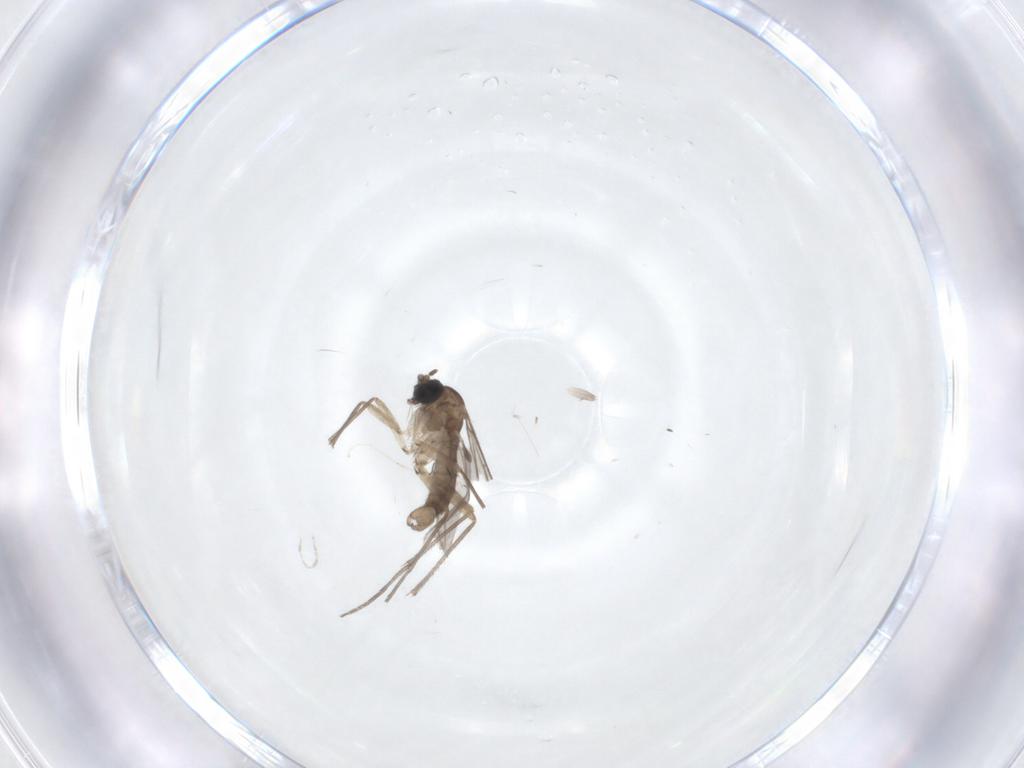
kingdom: Animalia
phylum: Arthropoda
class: Insecta
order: Diptera
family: Sciaridae
